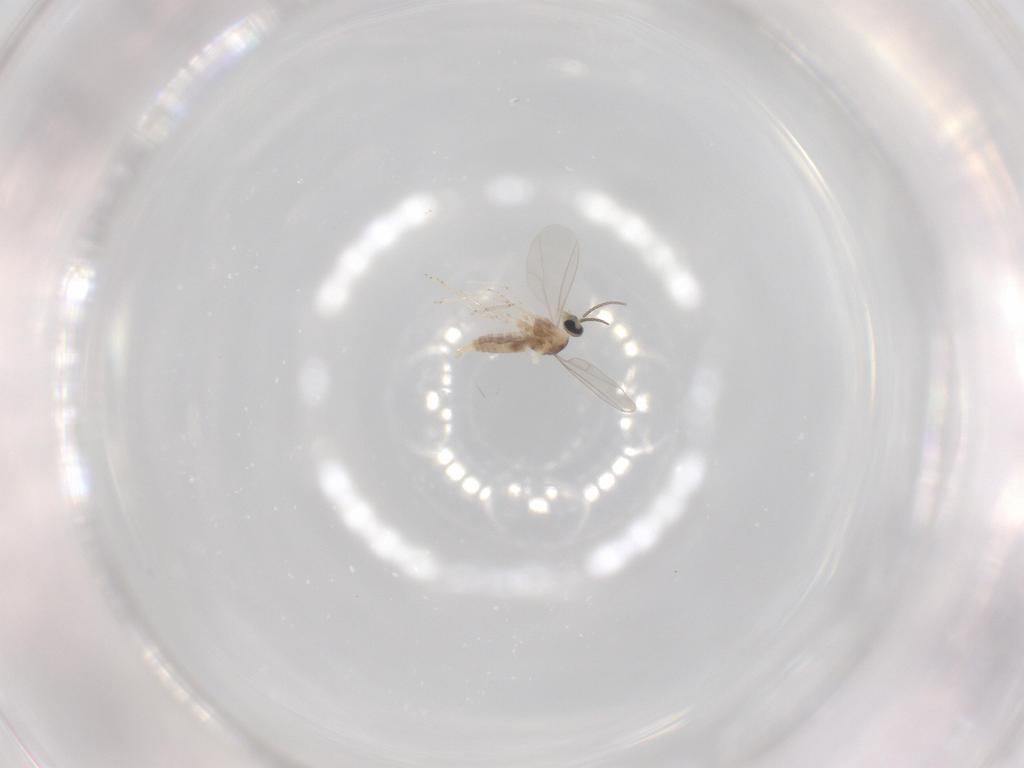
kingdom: Animalia
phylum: Arthropoda
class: Insecta
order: Diptera
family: Cecidomyiidae
